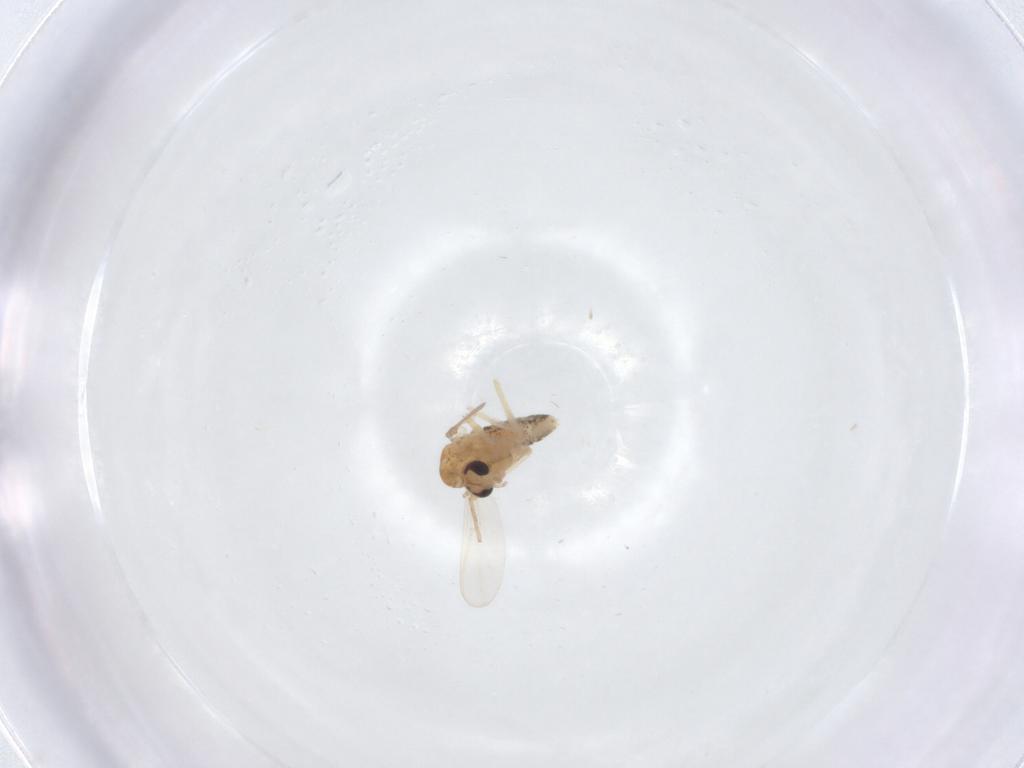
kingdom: Animalia
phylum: Arthropoda
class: Insecta
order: Diptera
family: Chironomidae
